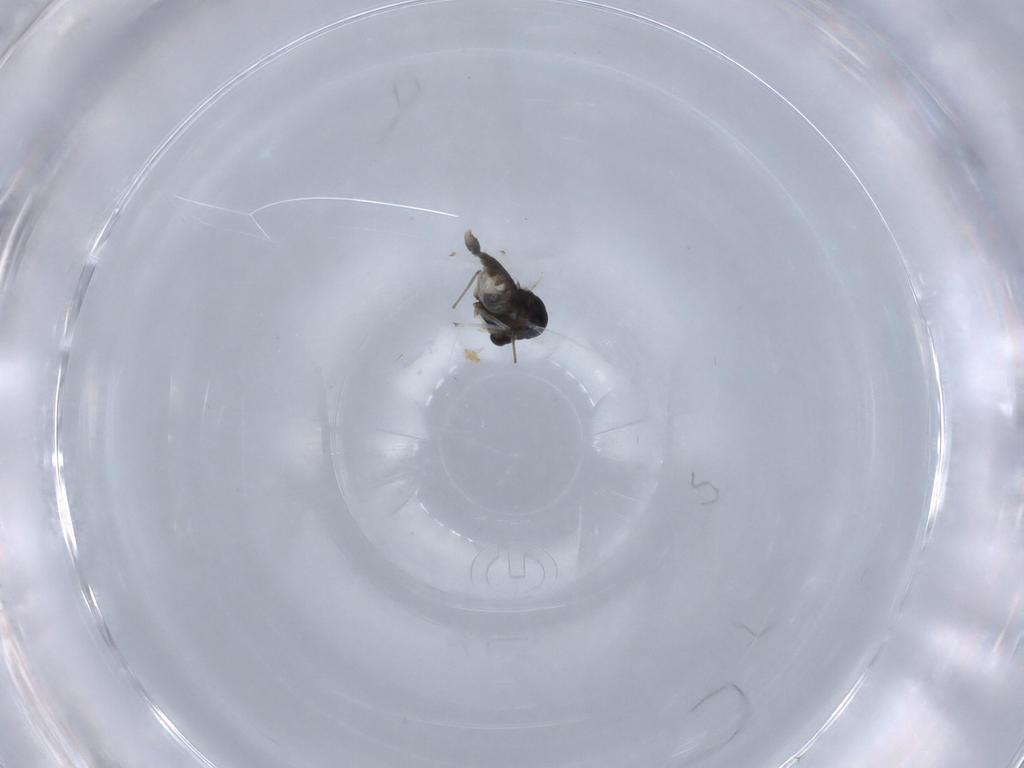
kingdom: Animalia
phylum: Arthropoda
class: Insecta
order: Diptera
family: Chironomidae
